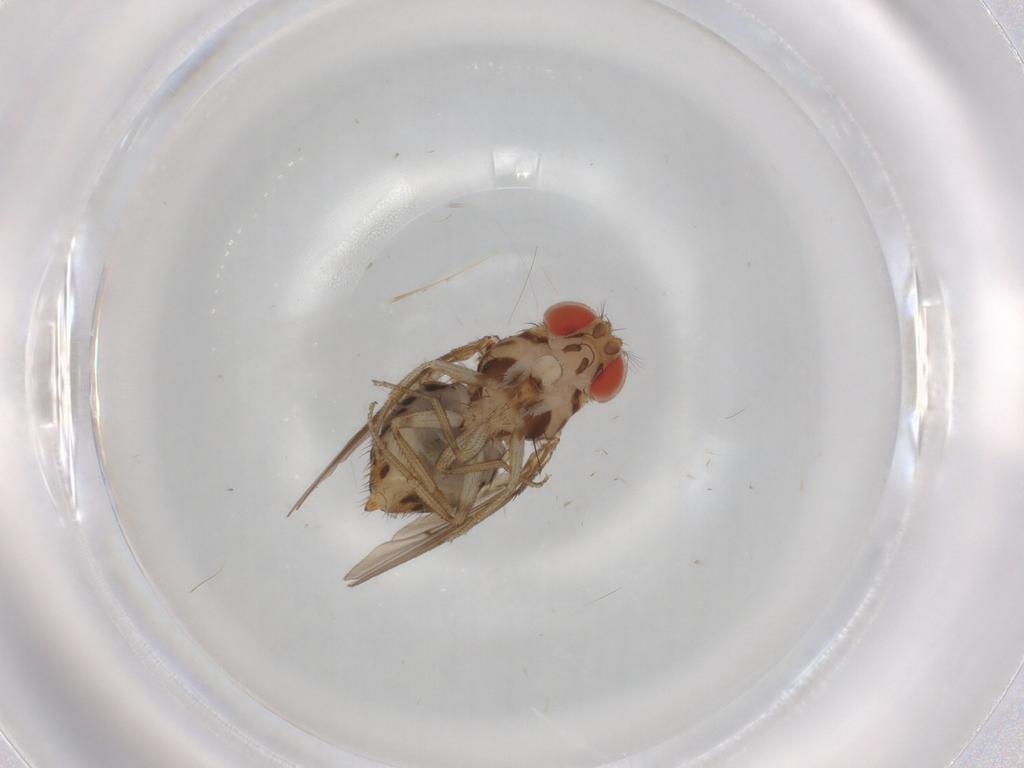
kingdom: Animalia
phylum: Arthropoda
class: Insecta
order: Diptera
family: Drosophilidae
